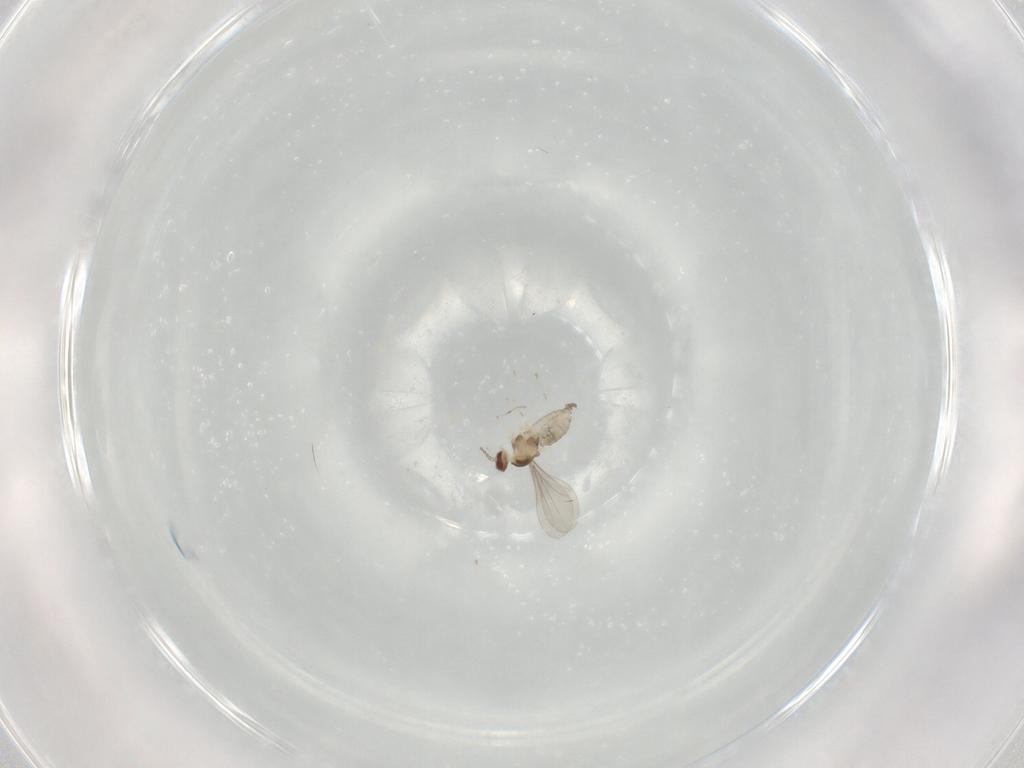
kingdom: Animalia
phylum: Arthropoda
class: Insecta
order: Diptera
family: Cecidomyiidae
